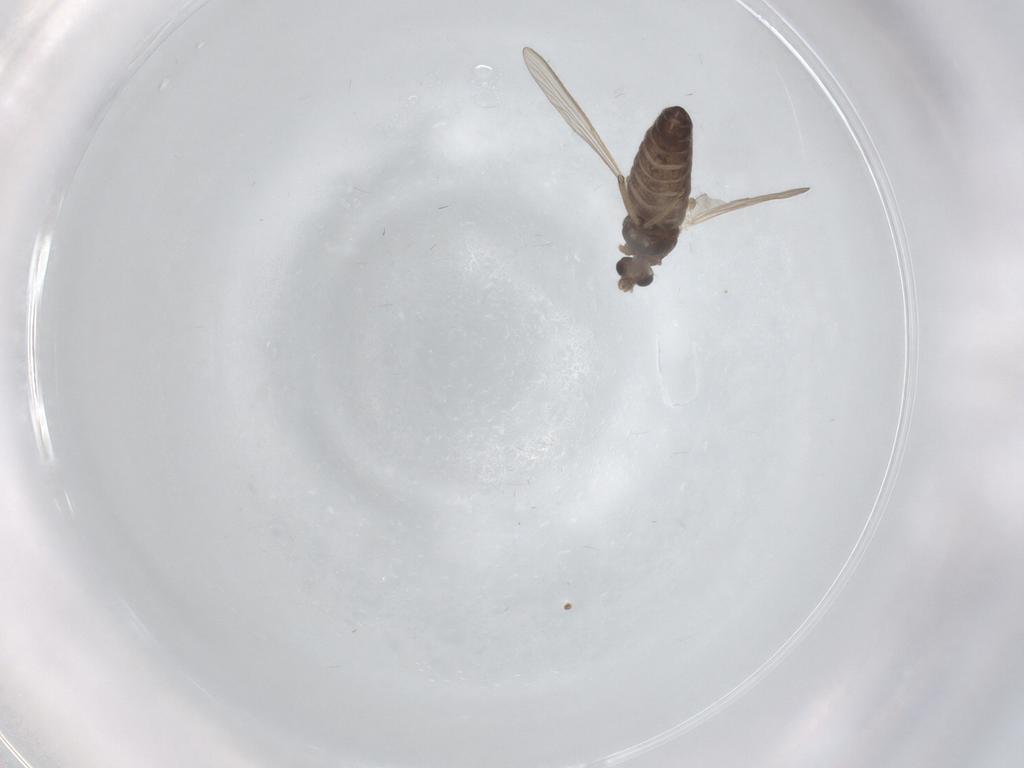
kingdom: Animalia
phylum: Arthropoda
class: Insecta
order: Diptera
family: Chironomidae
